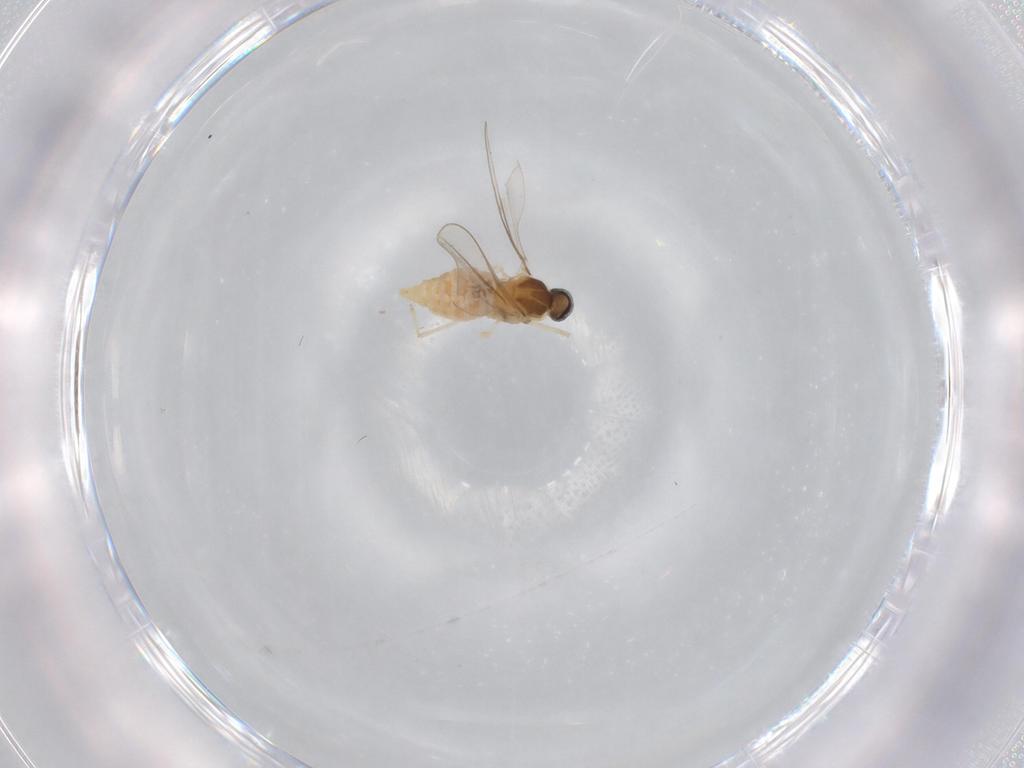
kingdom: Animalia
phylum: Arthropoda
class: Insecta
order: Diptera
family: Cecidomyiidae
